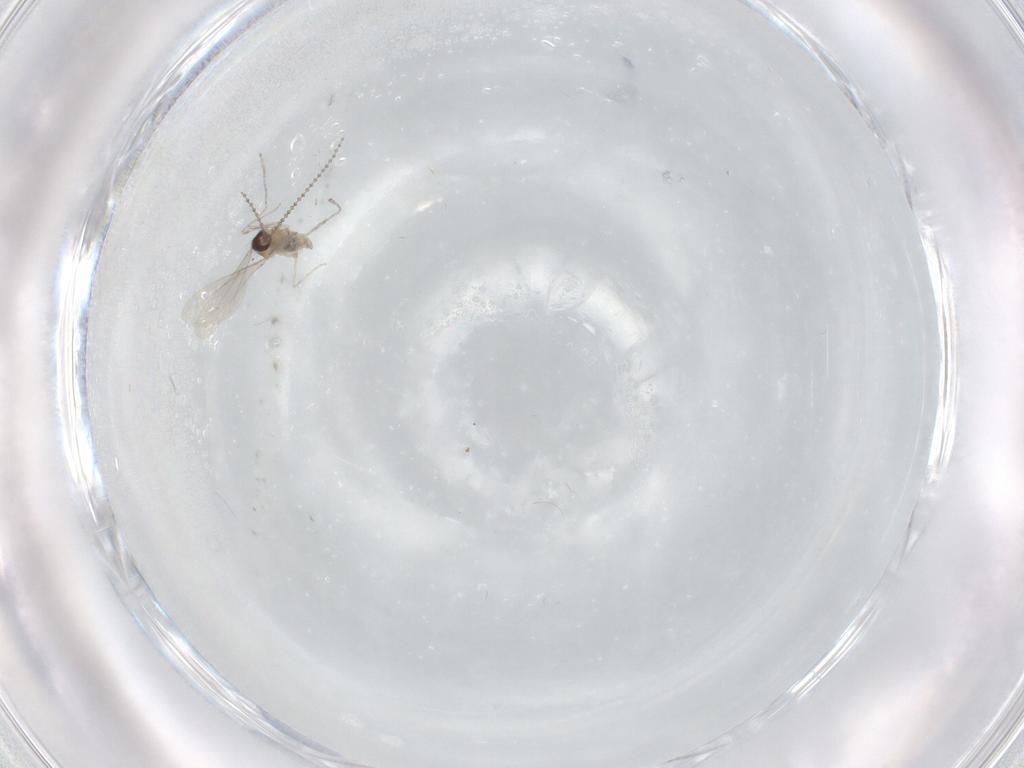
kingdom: Animalia
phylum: Arthropoda
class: Insecta
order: Diptera
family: Cecidomyiidae
